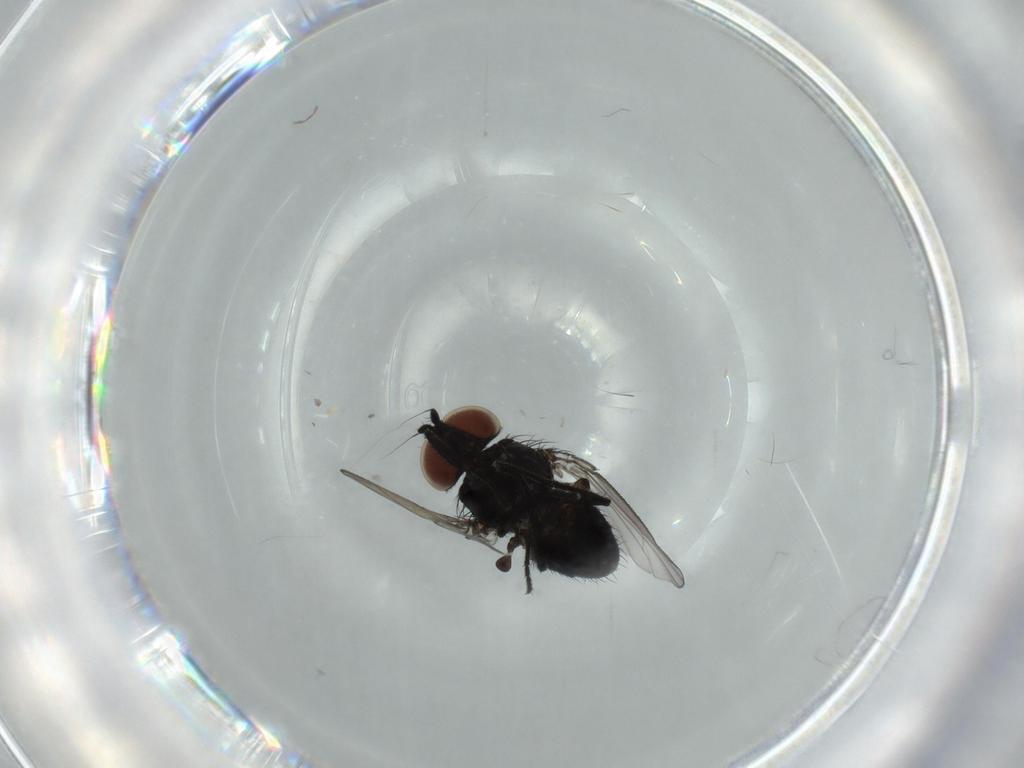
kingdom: Animalia
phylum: Arthropoda
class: Insecta
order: Diptera
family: Milichiidae
